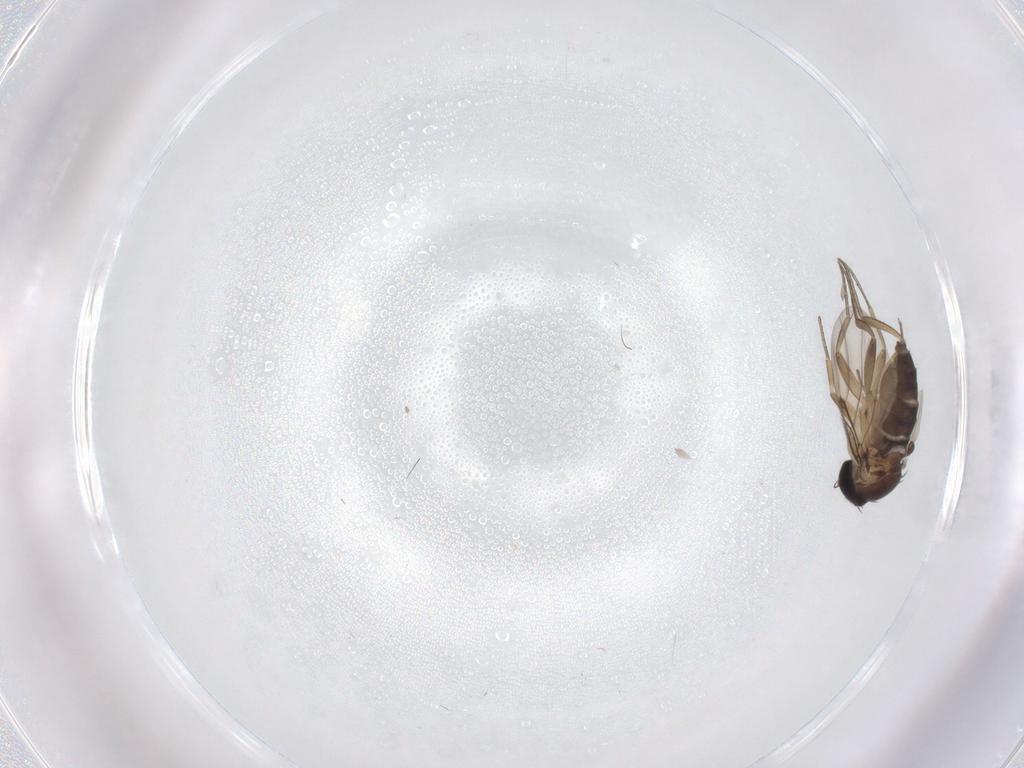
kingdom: Animalia
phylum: Arthropoda
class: Insecta
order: Diptera
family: Phoridae
